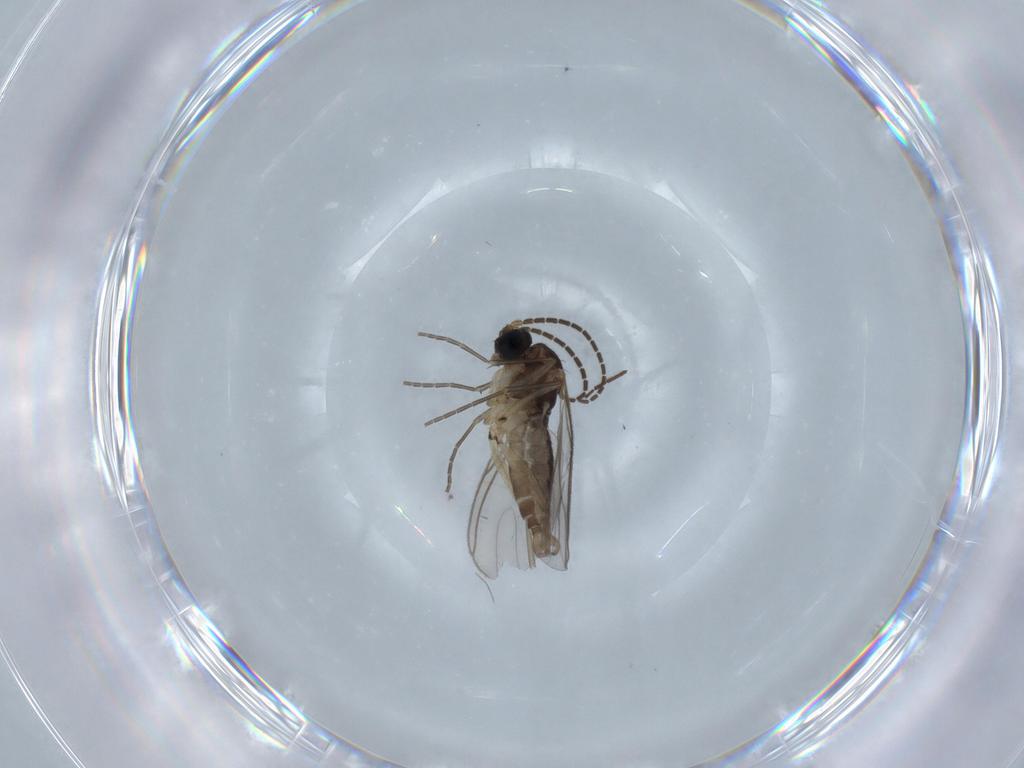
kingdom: Animalia
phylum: Arthropoda
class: Insecta
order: Diptera
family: Sciaridae
